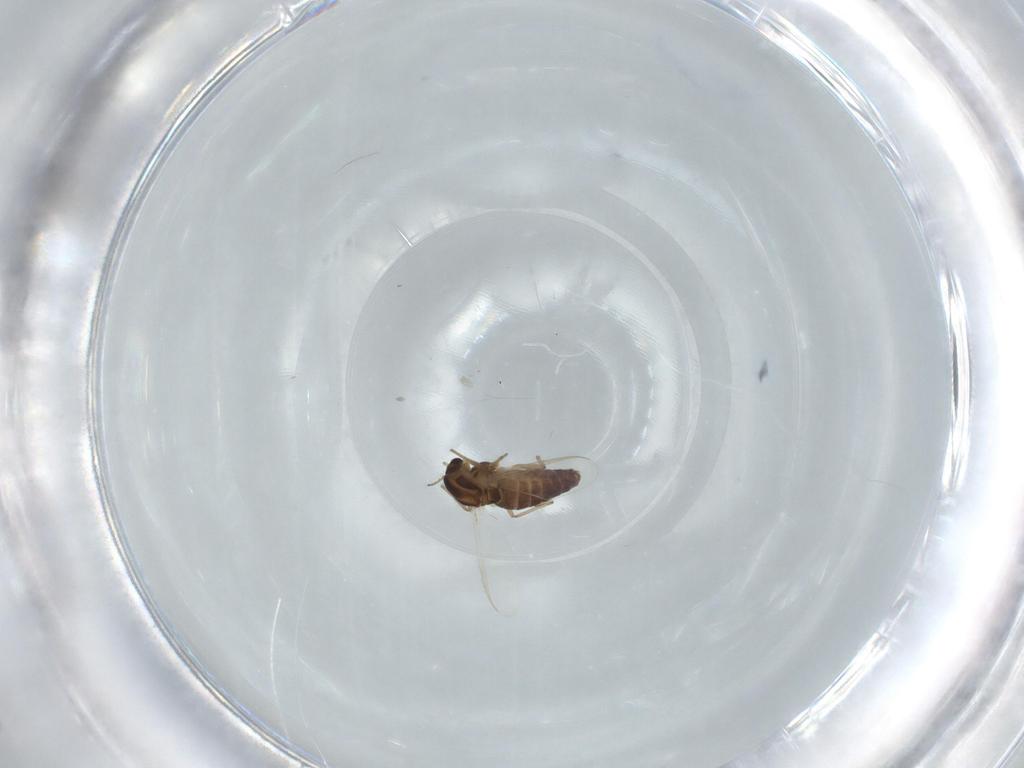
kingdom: Animalia
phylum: Arthropoda
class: Insecta
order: Diptera
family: Chironomidae
